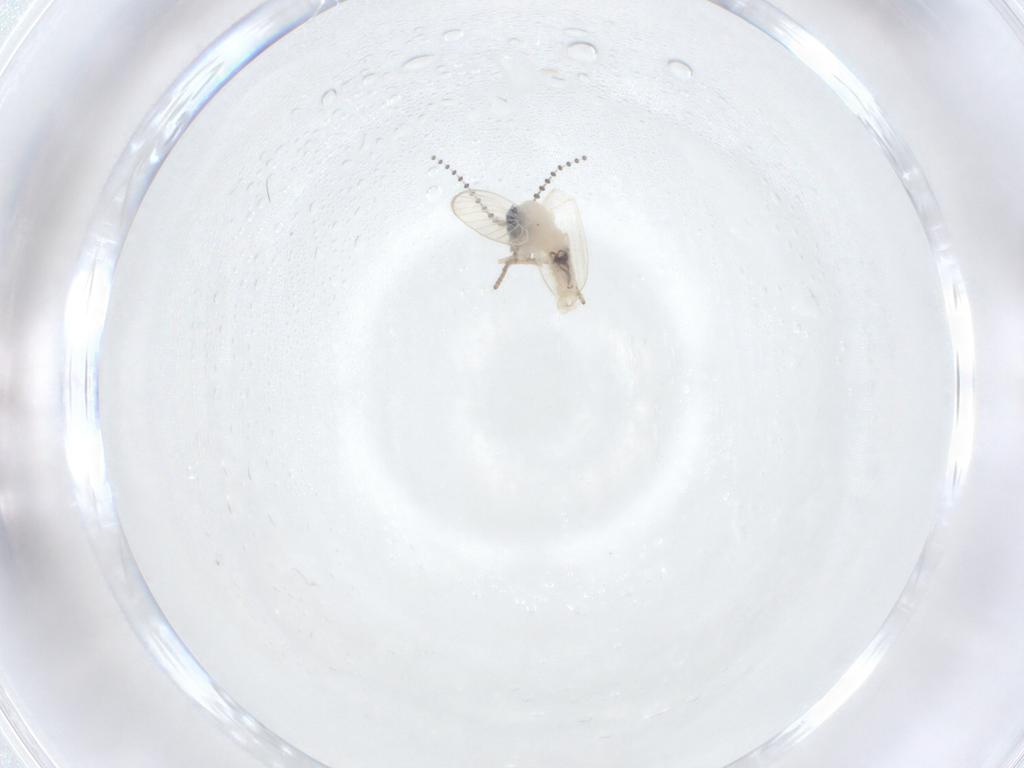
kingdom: Animalia
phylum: Arthropoda
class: Insecta
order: Diptera
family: Psychodidae
